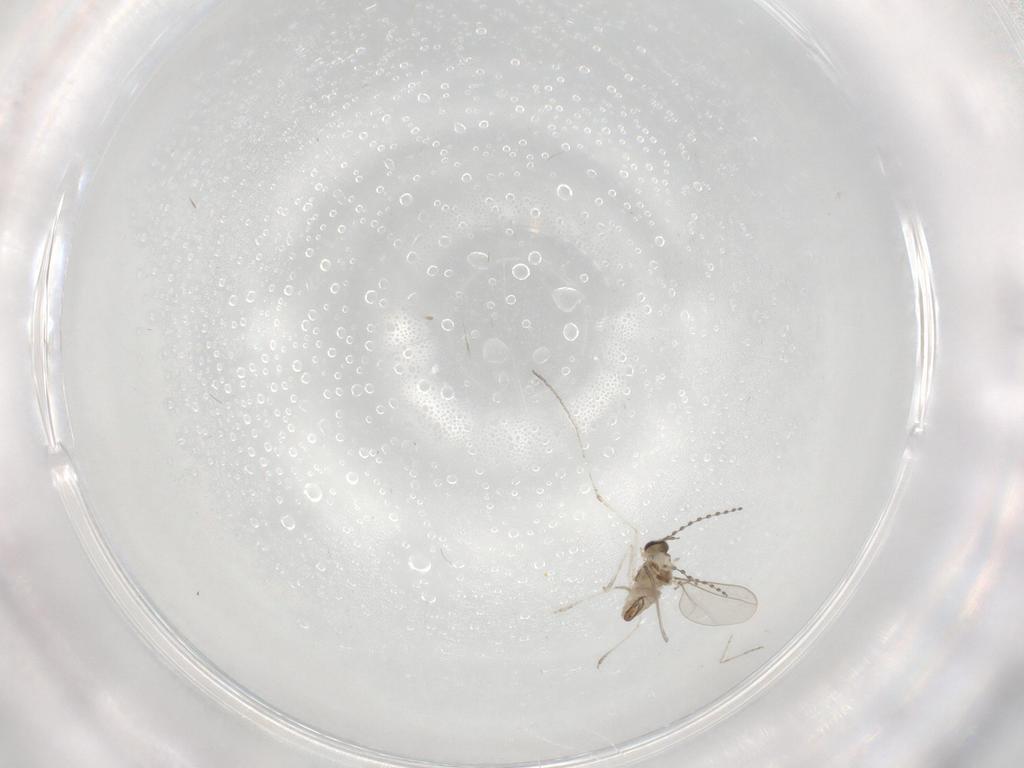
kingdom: Animalia
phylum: Arthropoda
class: Insecta
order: Diptera
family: Cecidomyiidae
